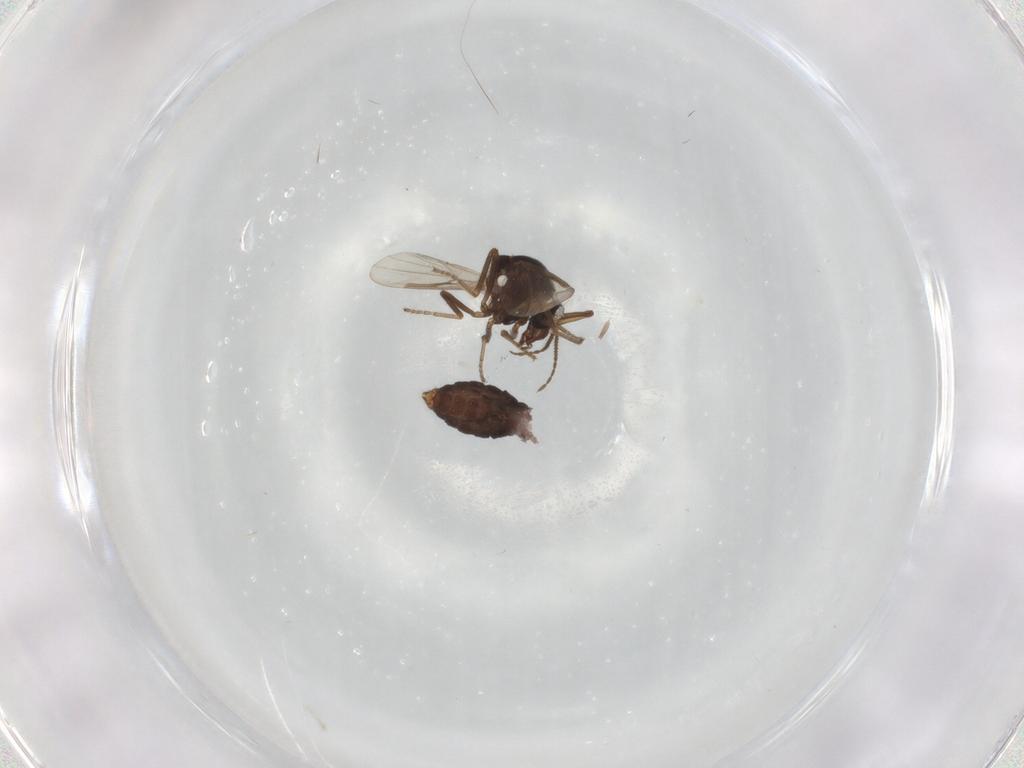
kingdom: Animalia
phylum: Arthropoda
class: Insecta
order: Diptera
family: Ceratopogonidae
